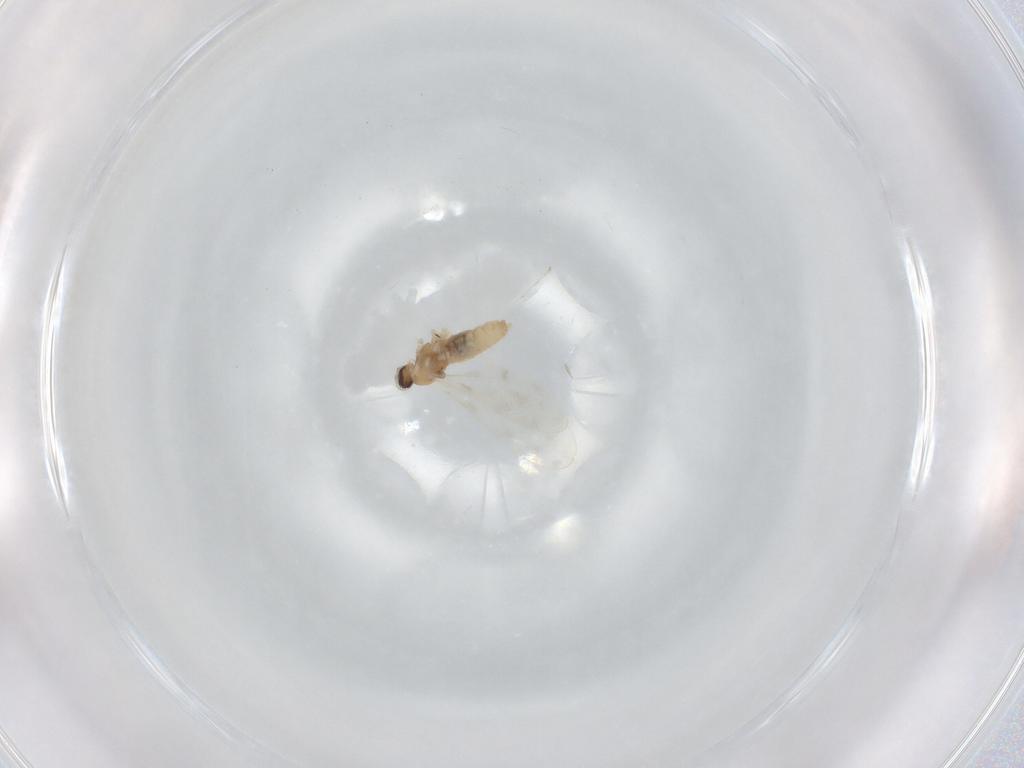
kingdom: Animalia
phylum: Arthropoda
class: Insecta
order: Diptera
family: Cecidomyiidae
